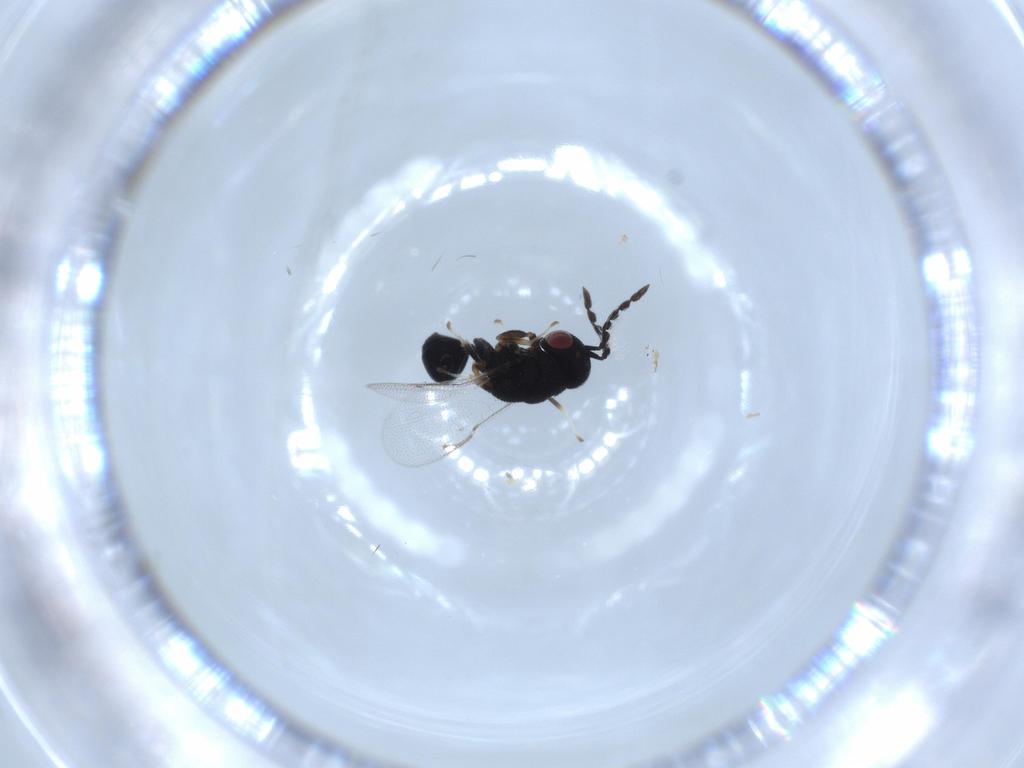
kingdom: Animalia
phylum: Arthropoda
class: Insecta
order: Hymenoptera
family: Eurytomidae
